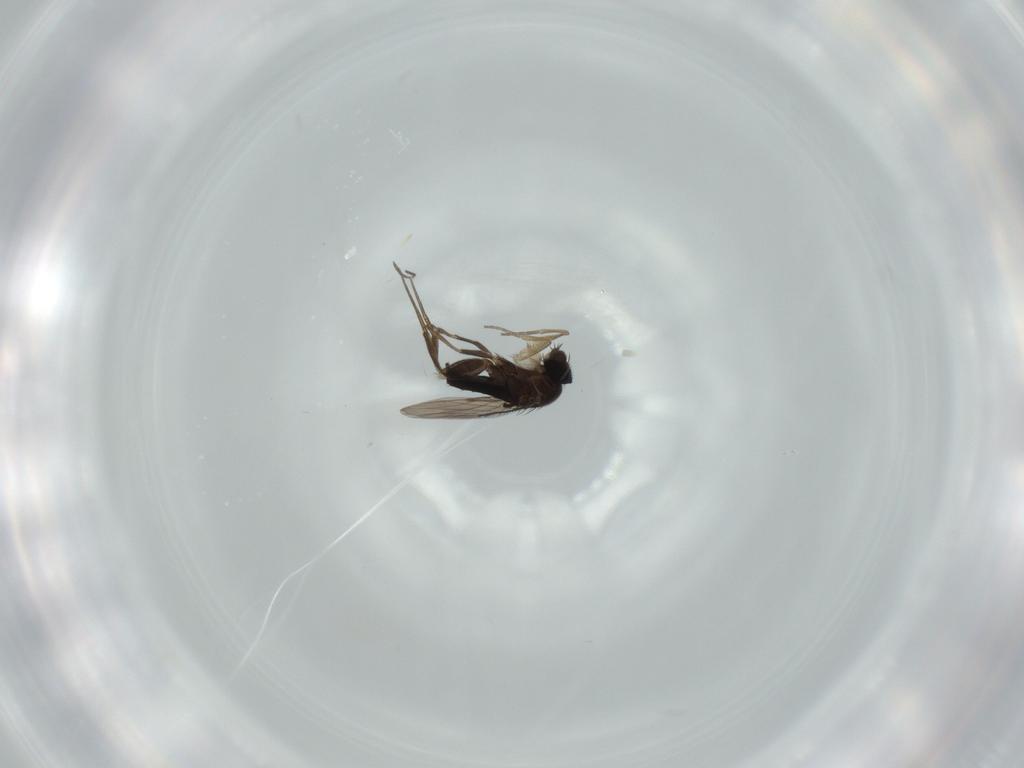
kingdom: Animalia
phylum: Arthropoda
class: Insecta
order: Diptera
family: Phoridae
